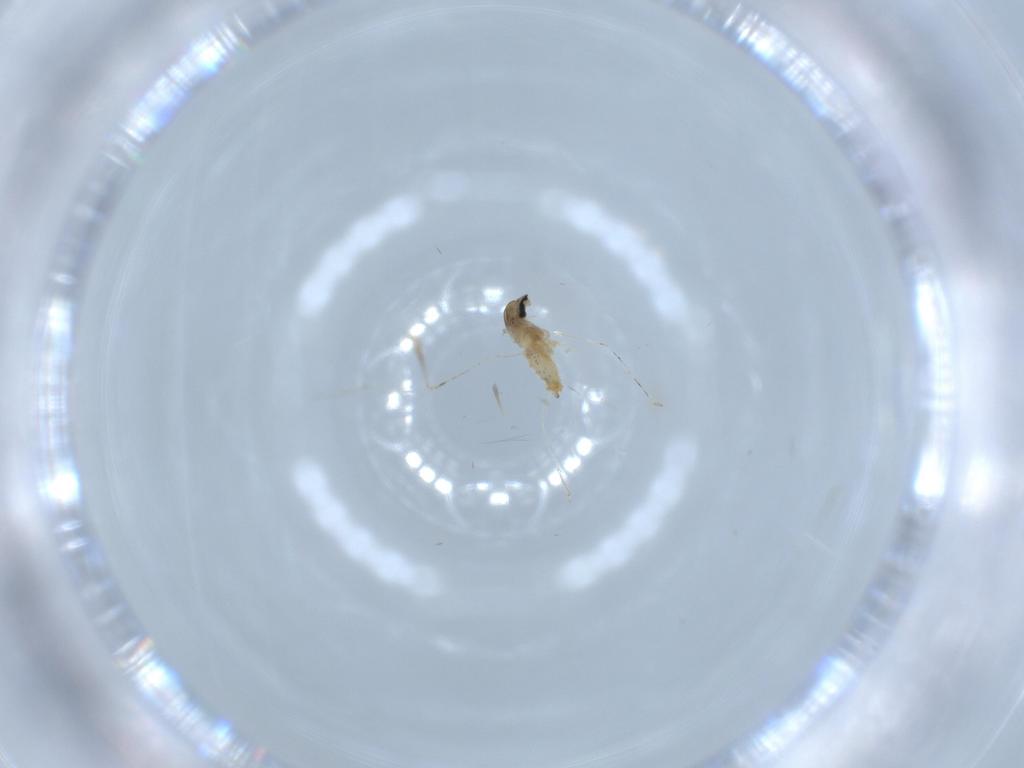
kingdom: Animalia
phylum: Arthropoda
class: Insecta
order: Diptera
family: Cecidomyiidae
